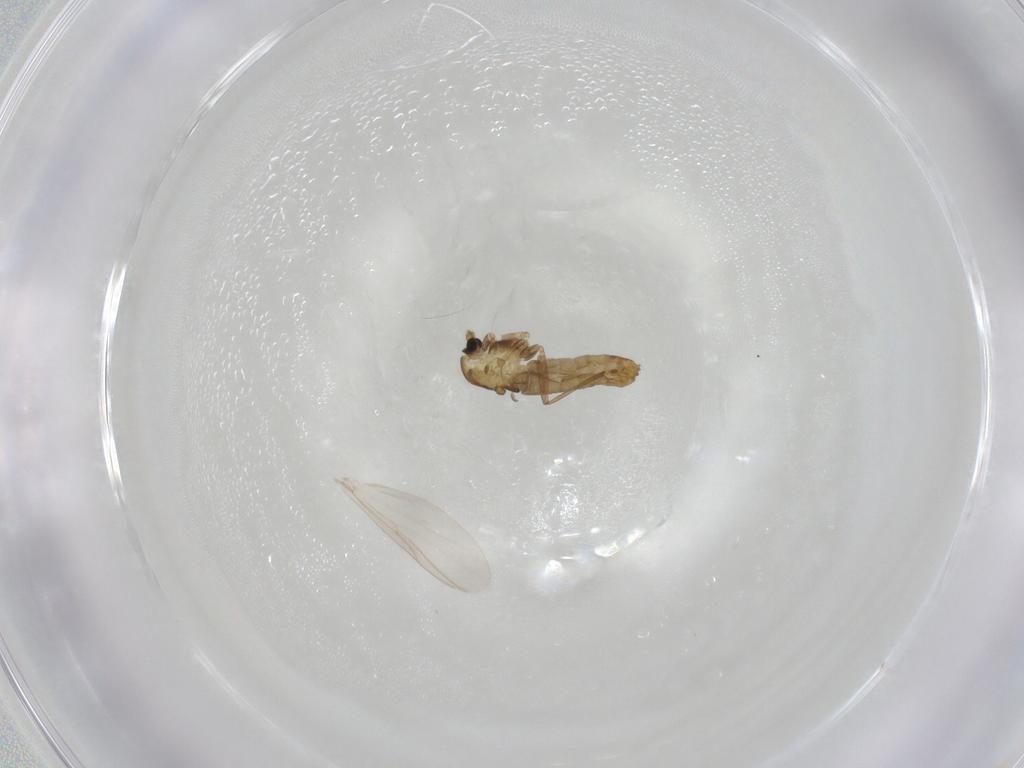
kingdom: Animalia
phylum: Arthropoda
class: Insecta
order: Diptera
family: Chironomidae
